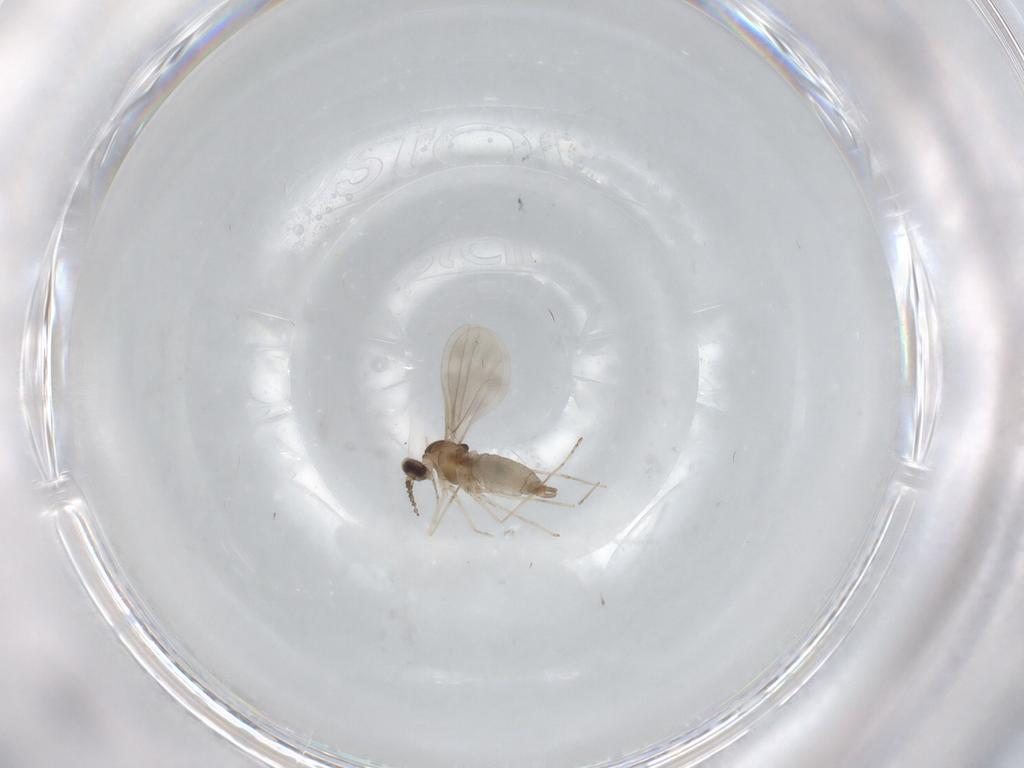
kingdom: Animalia
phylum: Arthropoda
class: Insecta
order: Diptera
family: Cecidomyiidae
